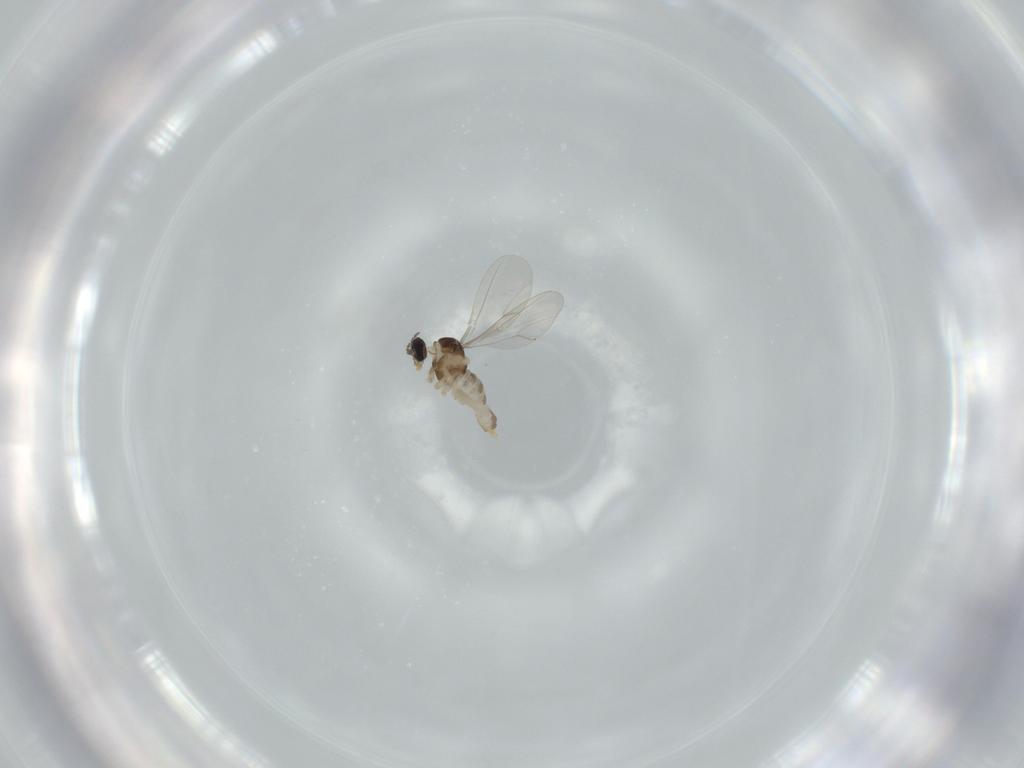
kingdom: Animalia
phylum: Arthropoda
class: Insecta
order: Diptera
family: Cecidomyiidae
